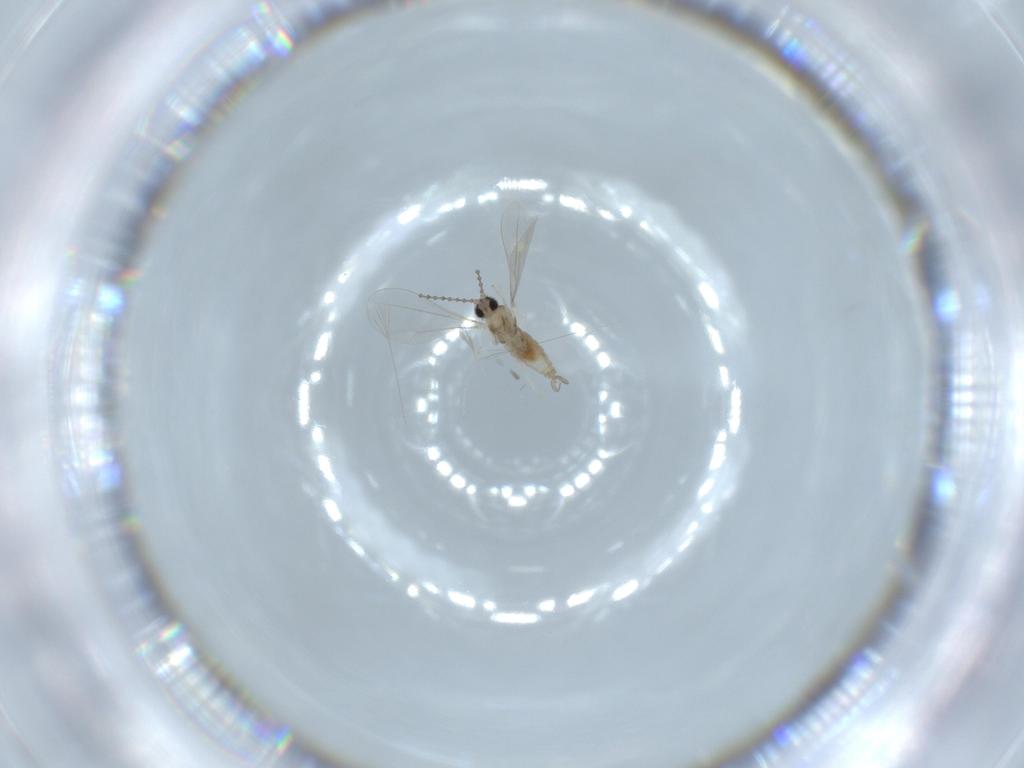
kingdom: Animalia
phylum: Arthropoda
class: Insecta
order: Diptera
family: Cecidomyiidae
